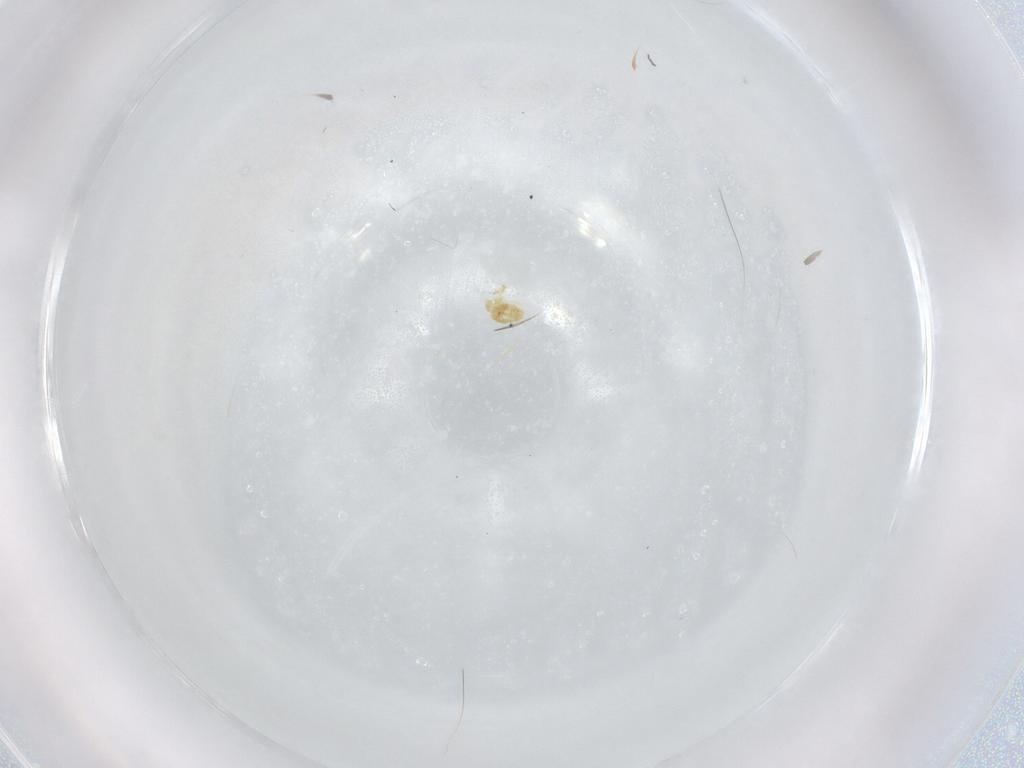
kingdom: Animalia
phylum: Arthropoda
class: Arachnida
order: Trombidiformes
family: Eupodidae
